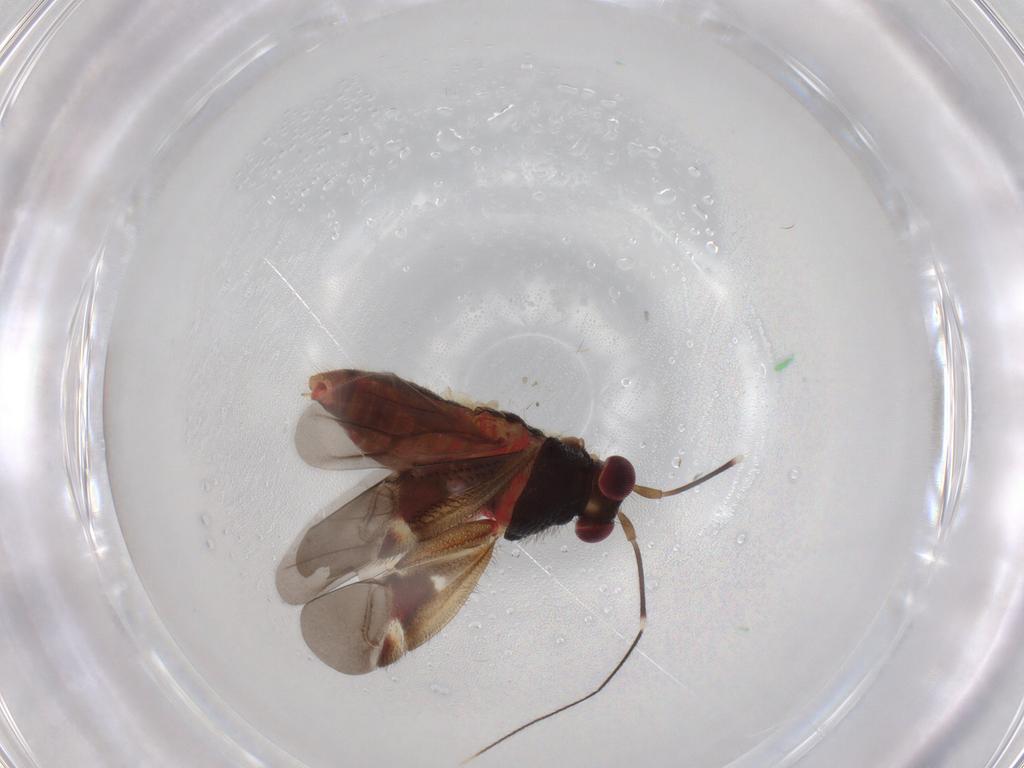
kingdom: Animalia
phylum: Arthropoda
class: Insecta
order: Hemiptera
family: Miridae
